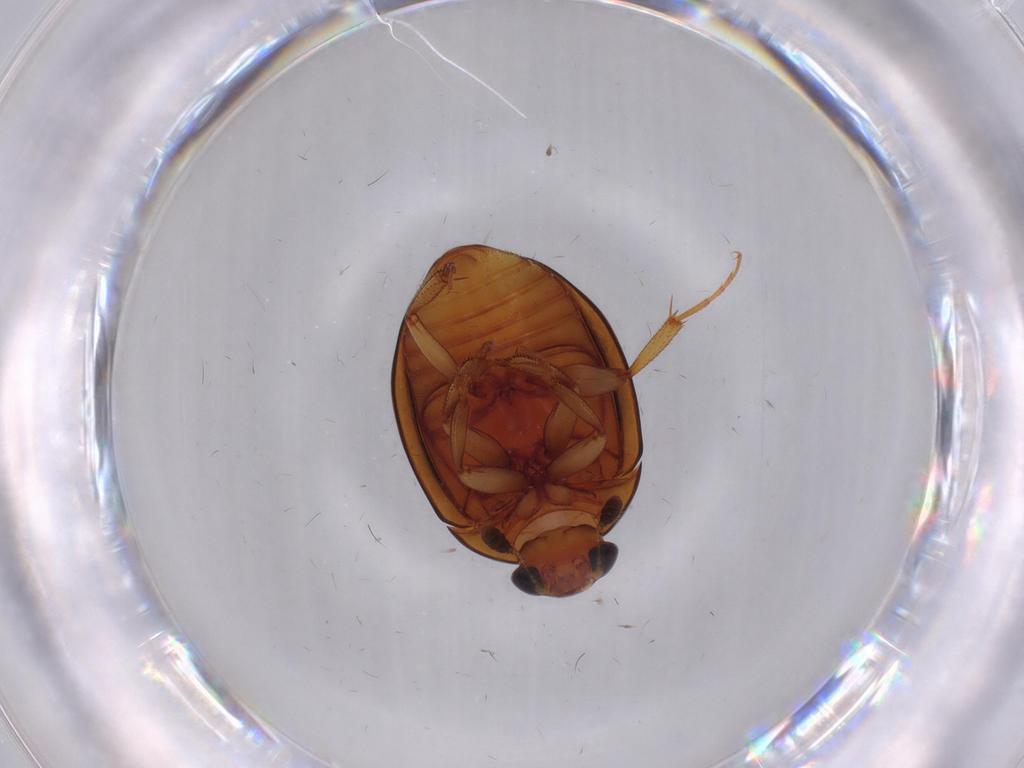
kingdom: Animalia
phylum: Arthropoda
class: Insecta
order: Coleoptera
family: Nitidulidae
